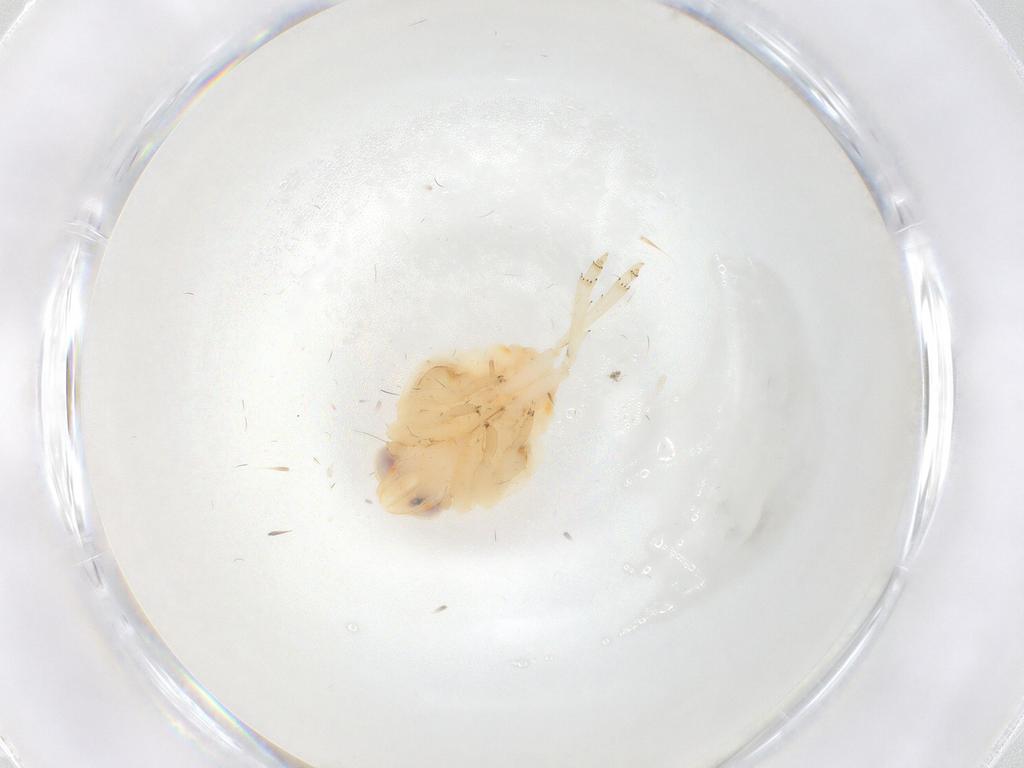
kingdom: Animalia
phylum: Arthropoda
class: Insecta
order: Hemiptera
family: Nogodinidae
